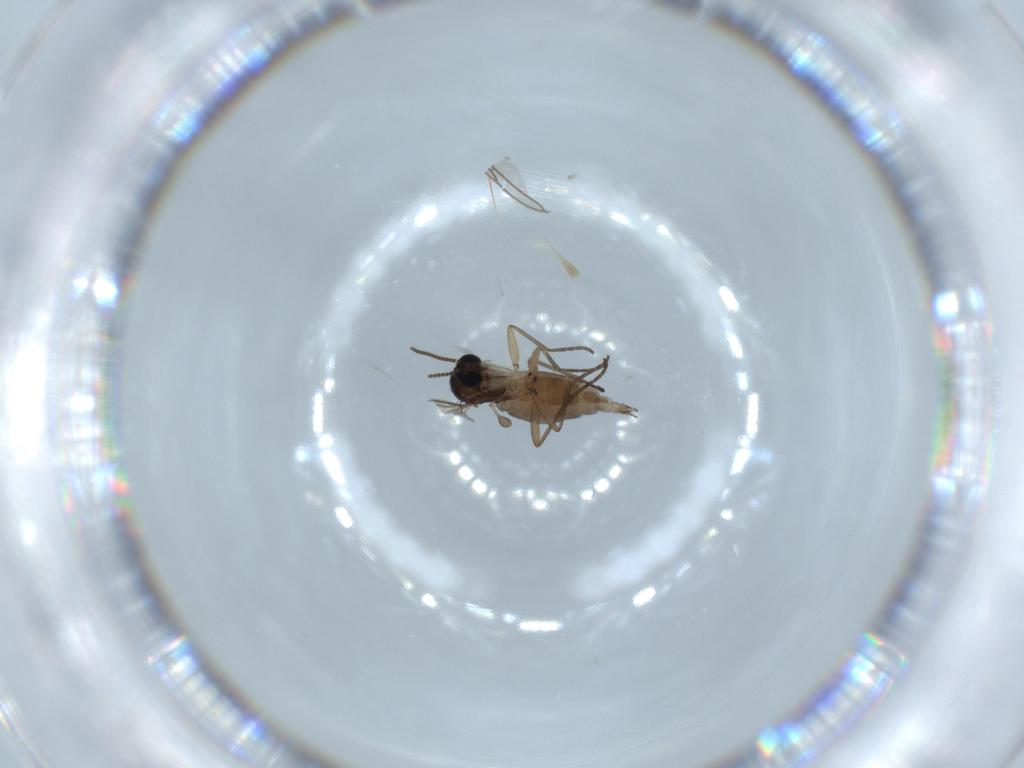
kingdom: Animalia
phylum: Arthropoda
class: Insecta
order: Diptera
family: Sciaridae
